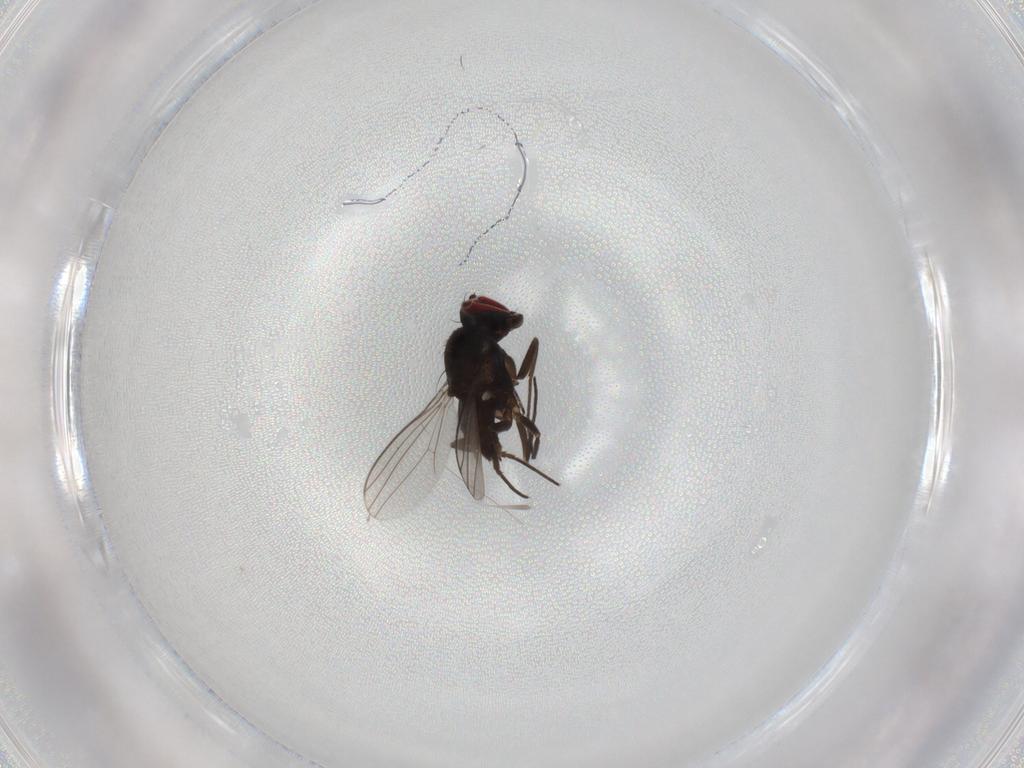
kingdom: Animalia
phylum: Arthropoda
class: Insecta
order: Diptera
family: Dolichopodidae
